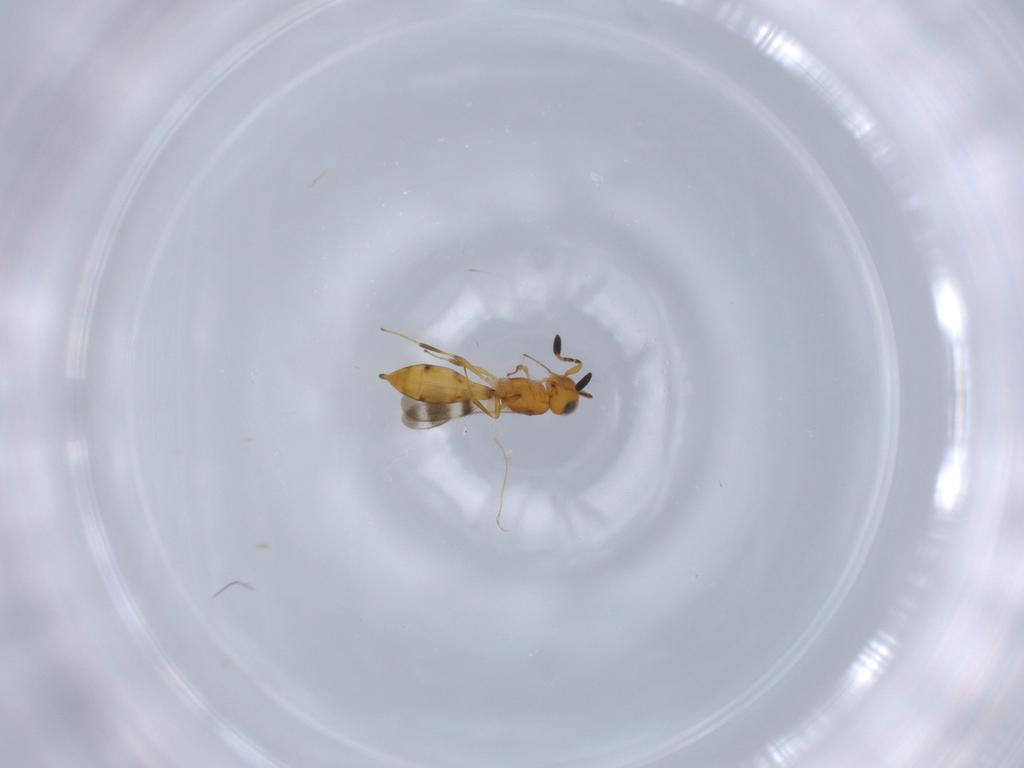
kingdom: Animalia
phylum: Arthropoda
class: Insecta
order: Hymenoptera
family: Scelionidae
